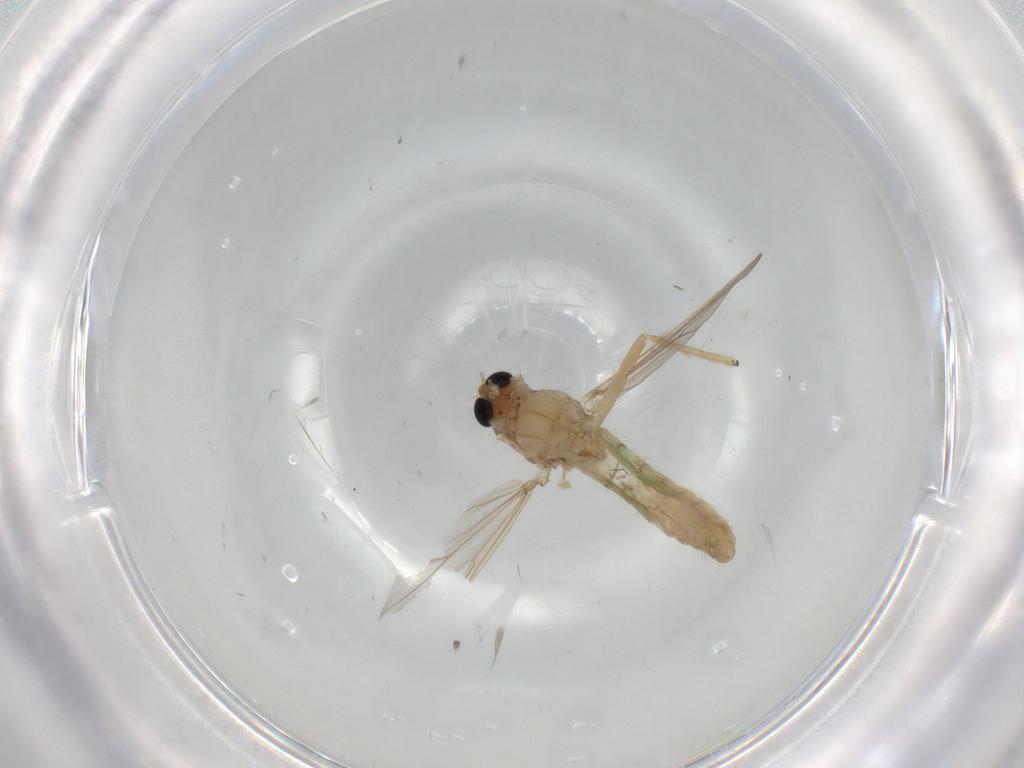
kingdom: Animalia
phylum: Arthropoda
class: Insecta
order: Diptera
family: Chironomidae
